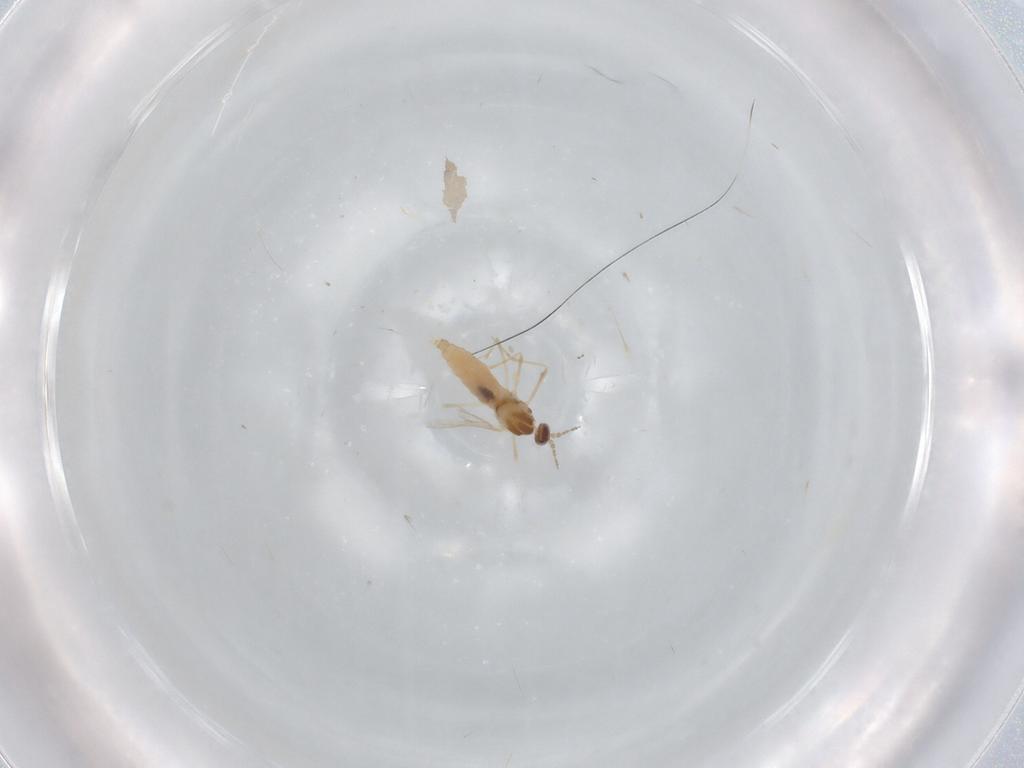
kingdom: Animalia
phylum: Arthropoda
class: Insecta
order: Diptera
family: Cecidomyiidae
